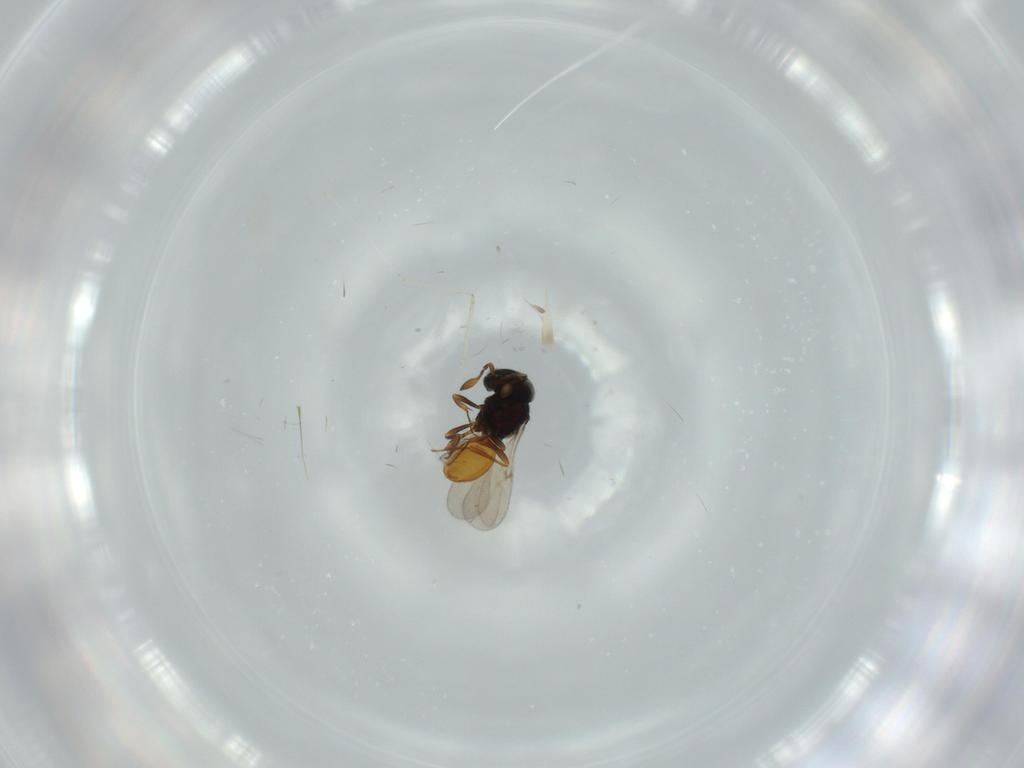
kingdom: Animalia
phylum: Arthropoda
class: Insecta
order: Hymenoptera
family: Scelionidae
